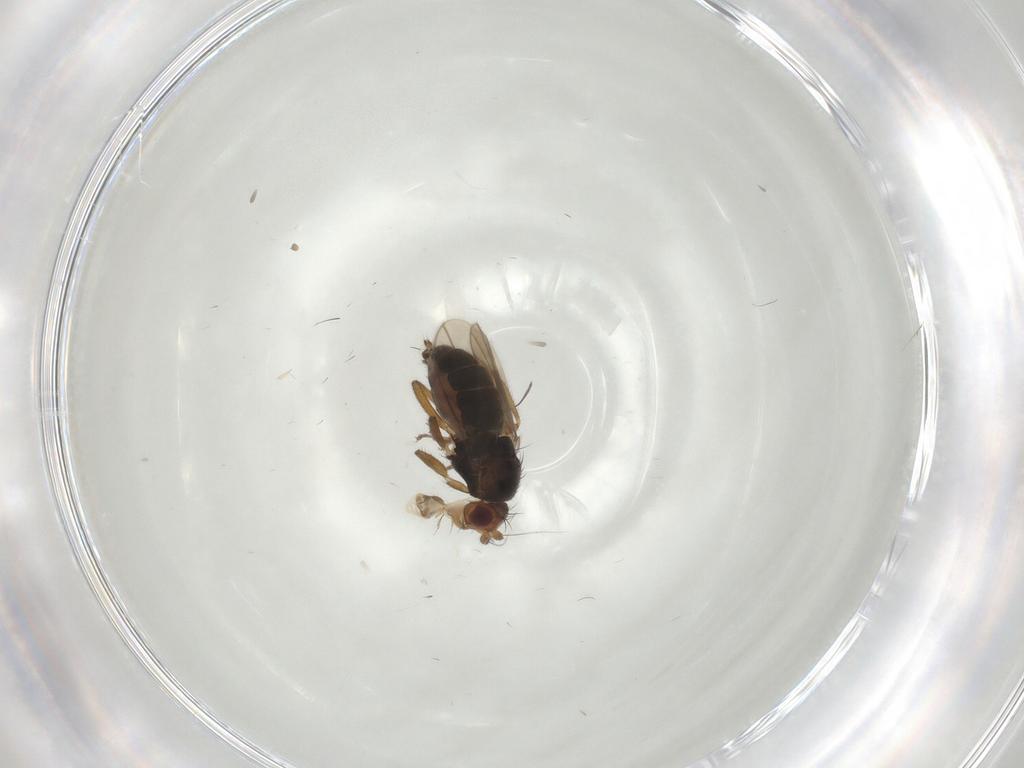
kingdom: Animalia
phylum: Arthropoda
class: Insecta
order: Diptera
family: Sphaeroceridae
